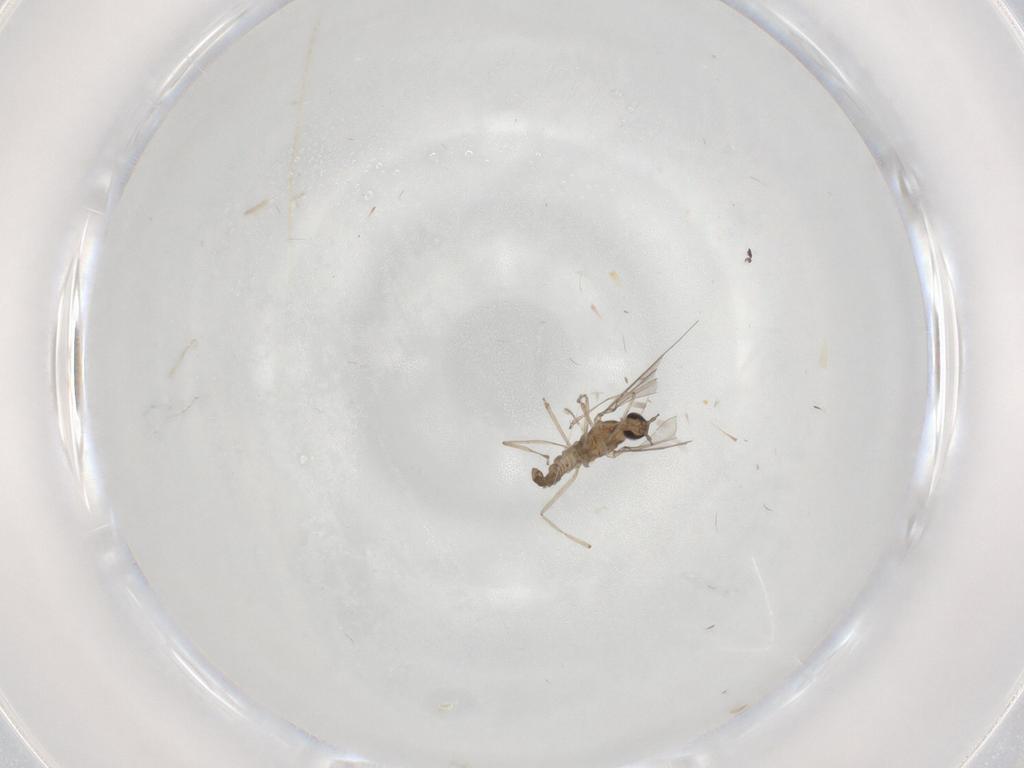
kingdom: Animalia
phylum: Arthropoda
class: Insecta
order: Diptera
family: Cecidomyiidae
